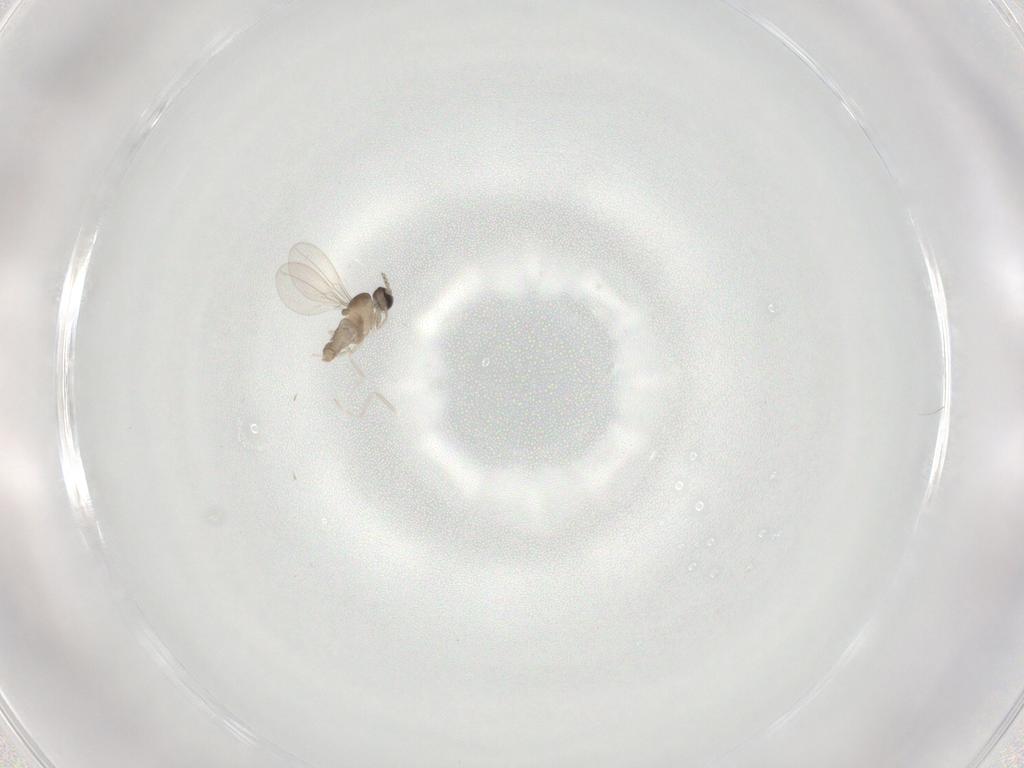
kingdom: Animalia
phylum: Arthropoda
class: Insecta
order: Diptera
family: Cecidomyiidae
